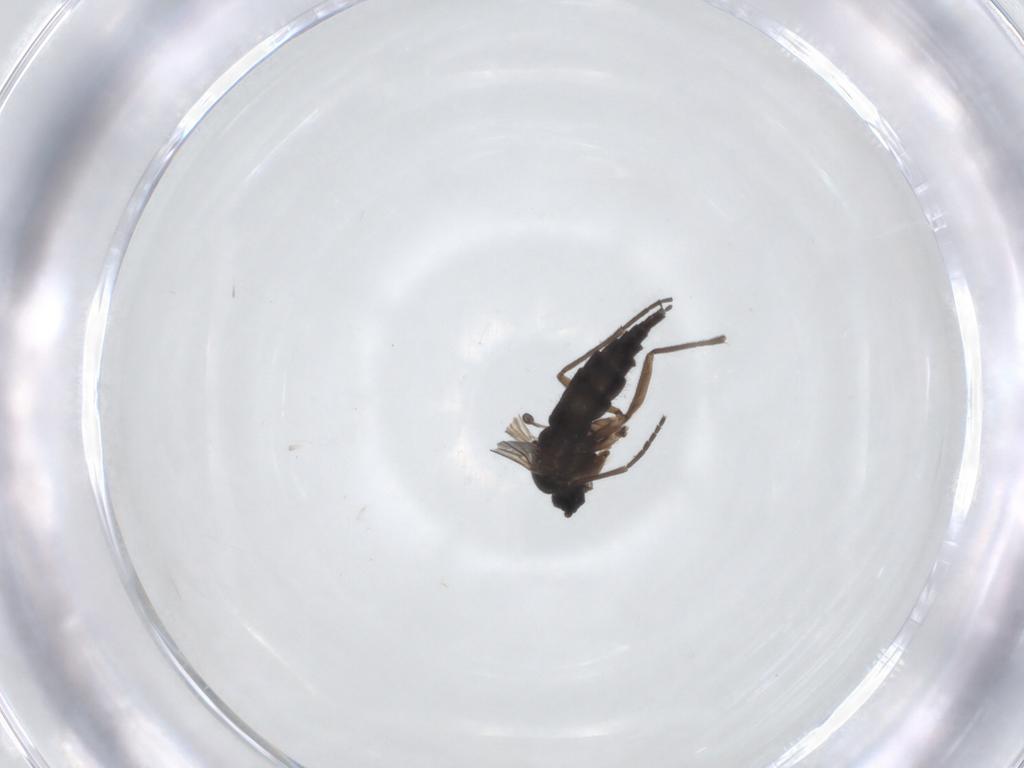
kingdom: Animalia
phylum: Arthropoda
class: Insecta
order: Diptera
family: Sciaridae
